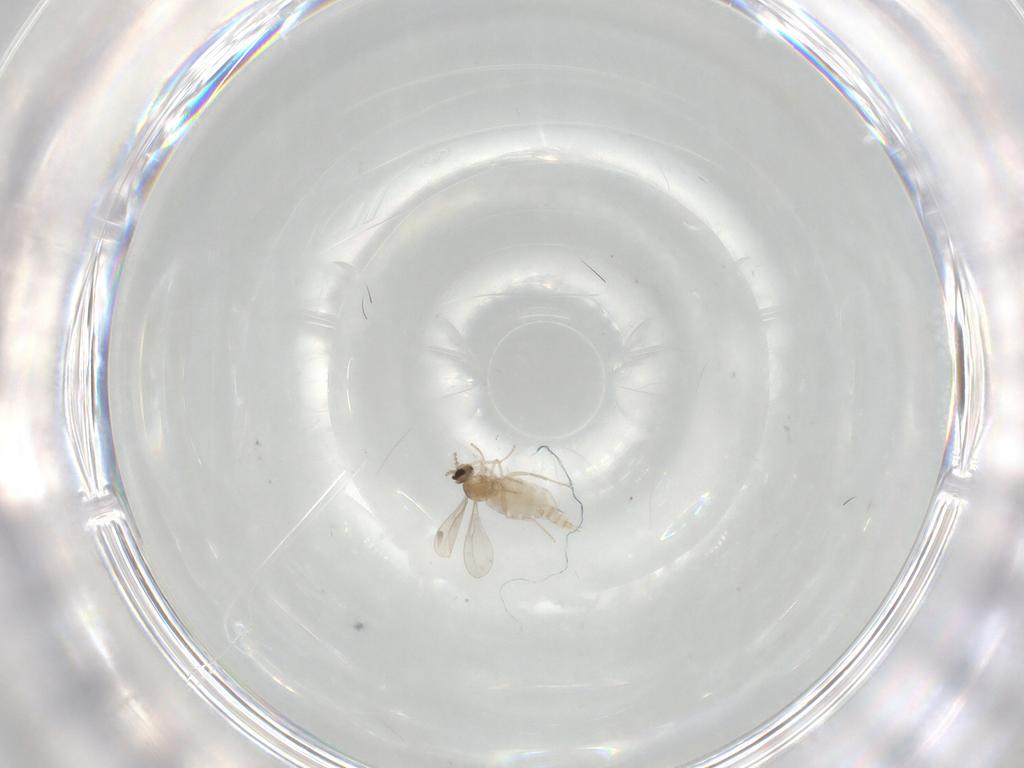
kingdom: Animalia
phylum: Arthropoda
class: Insecta
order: Diptera
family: Cecidomyiidae
